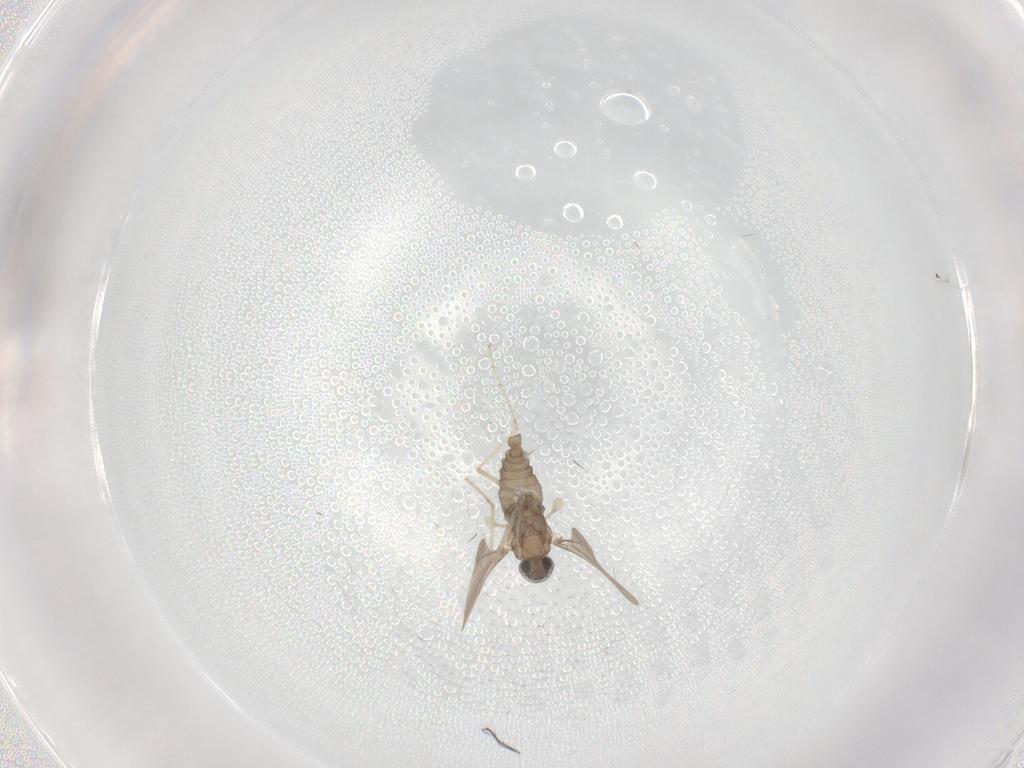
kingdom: Animalia
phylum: Arthropoda
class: Insecta
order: Diptera
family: Cecidomyiidae
